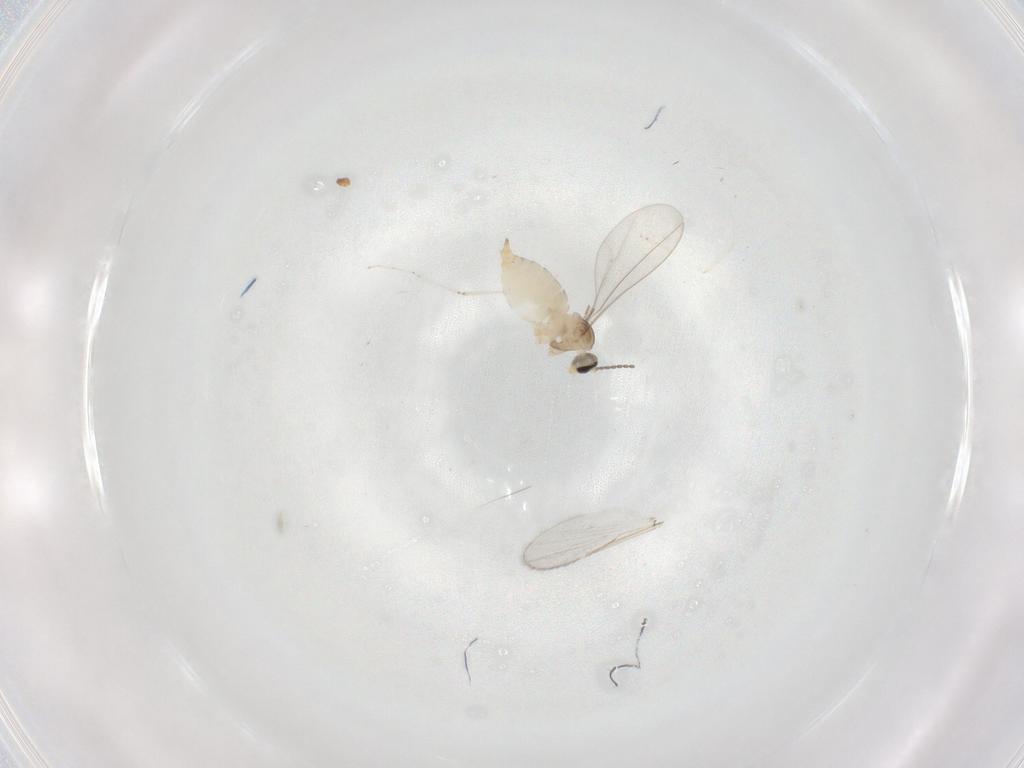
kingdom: Animalia
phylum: Arthropoda
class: Insecta
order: Diptera
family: Cecidomyiidae
